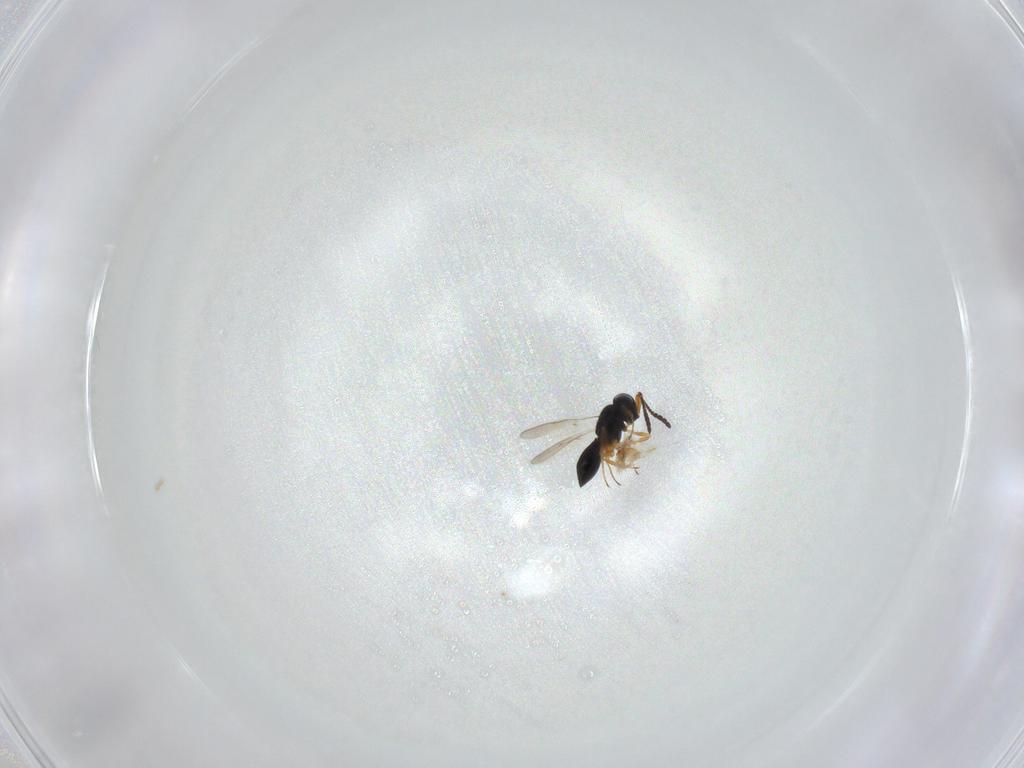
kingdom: Animalia
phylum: Arthropoda
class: Insecta
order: Hymenoptera
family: Scelionidae
